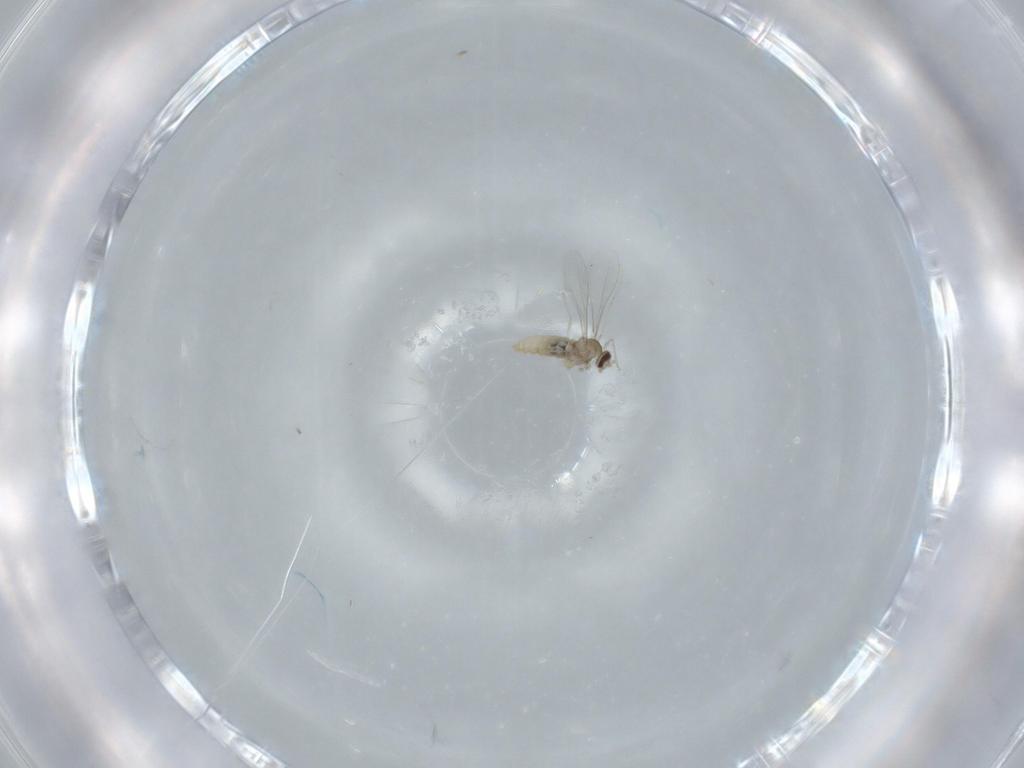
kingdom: Animalia
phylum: Arthropoda
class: Insecta
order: Diptera
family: Cecidomyiidae
